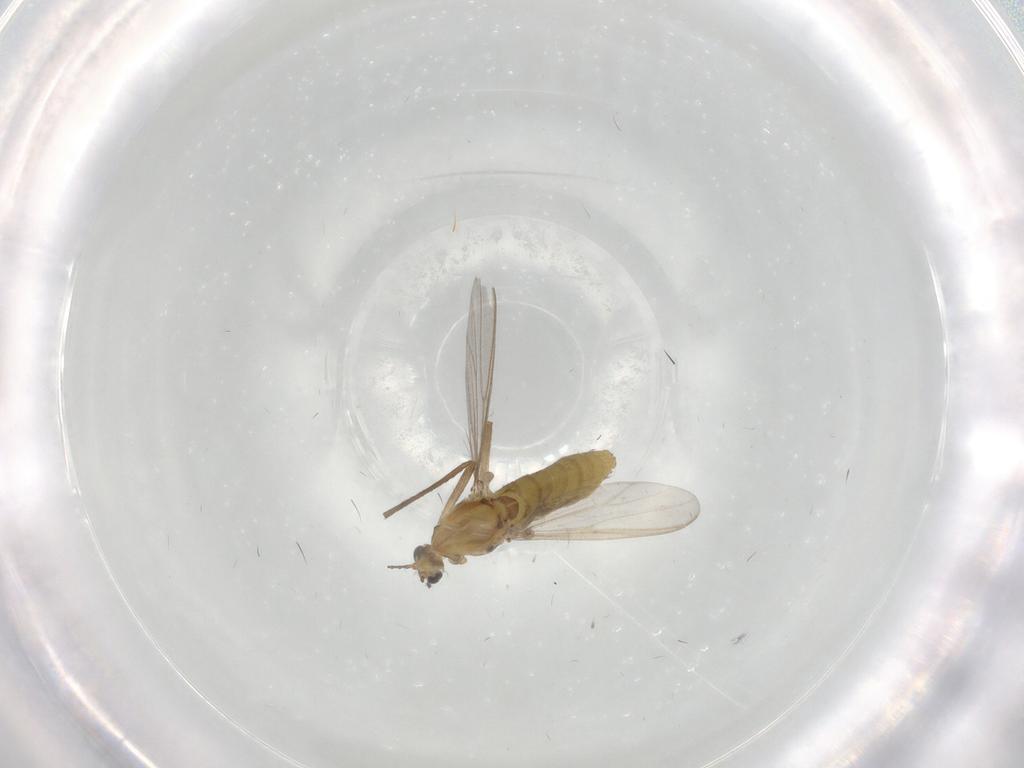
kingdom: Animalia
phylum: Arthropoda
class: Insecta
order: Diptera
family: Chironomidae
